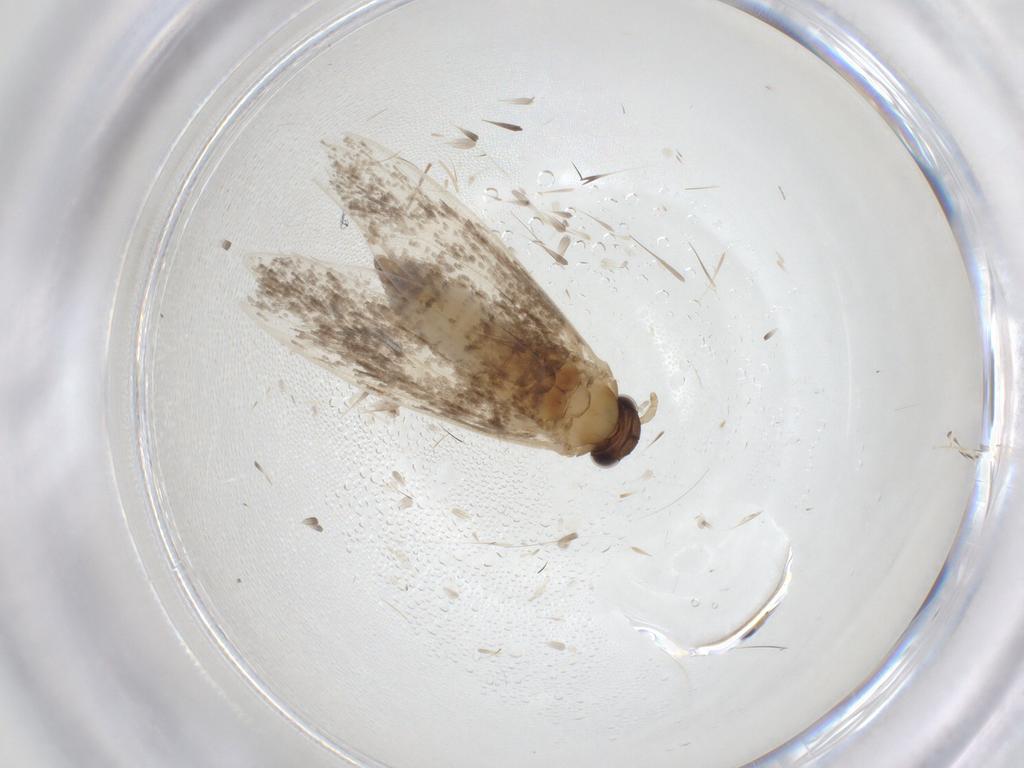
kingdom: Animalia
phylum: Arthropoda
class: Insecta
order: Lepidoptera
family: Tineidae
